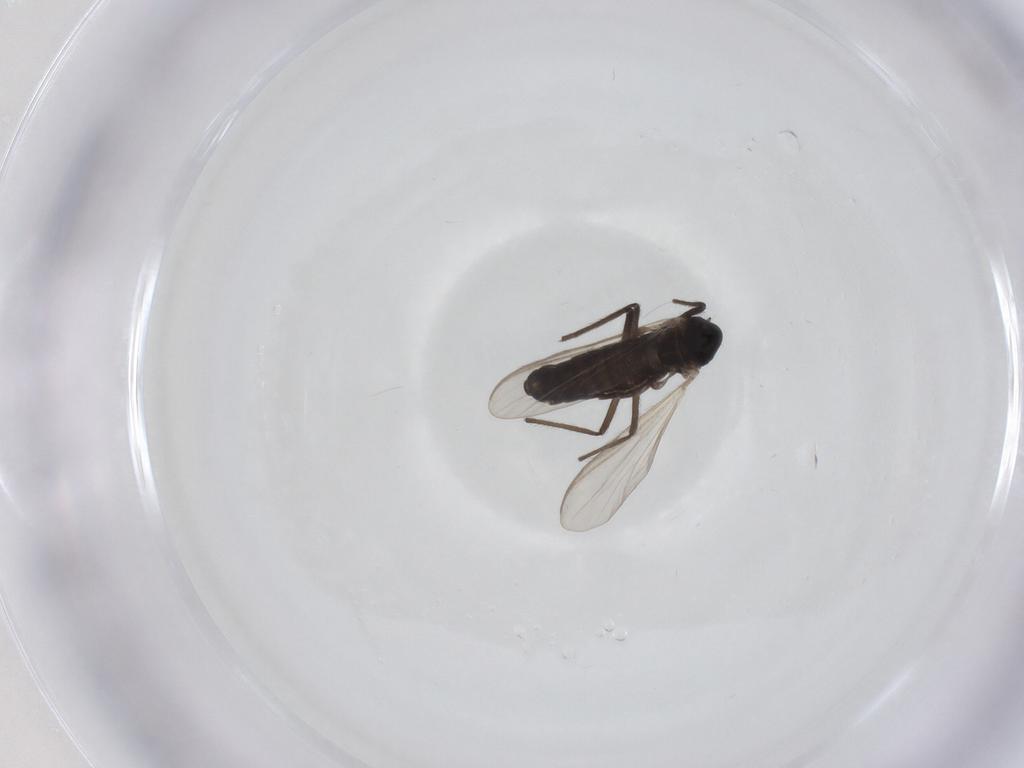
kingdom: Animalia
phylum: Arthropoda
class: Insecta
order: Diptera
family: Chironomidae
